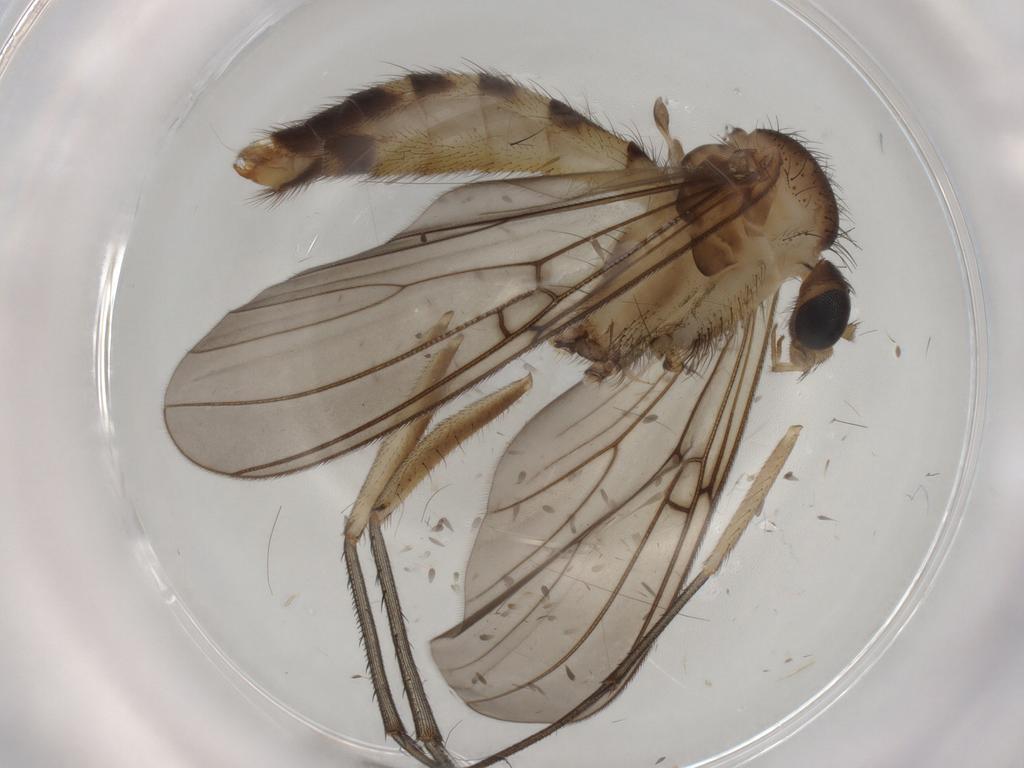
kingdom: Animalia
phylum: Arthropoda
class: Insecta
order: Diptera
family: Mycetophilidae
